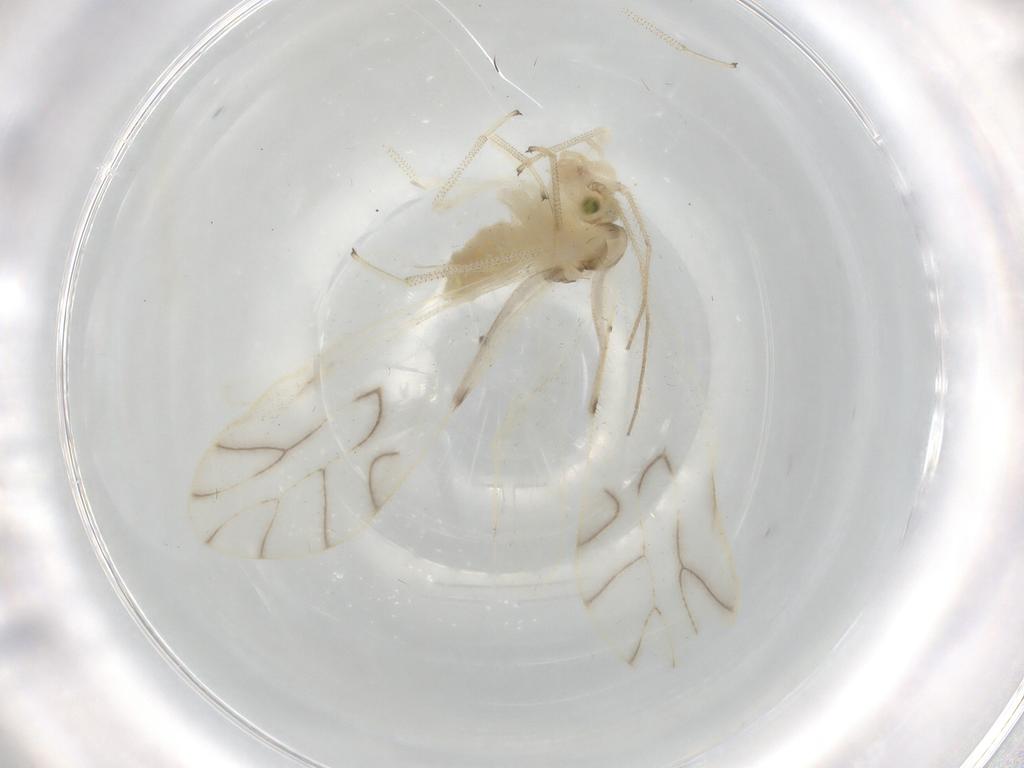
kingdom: Animalia
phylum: Arthropoda
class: Insecta
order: Psocodea
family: Caeciliusidae
